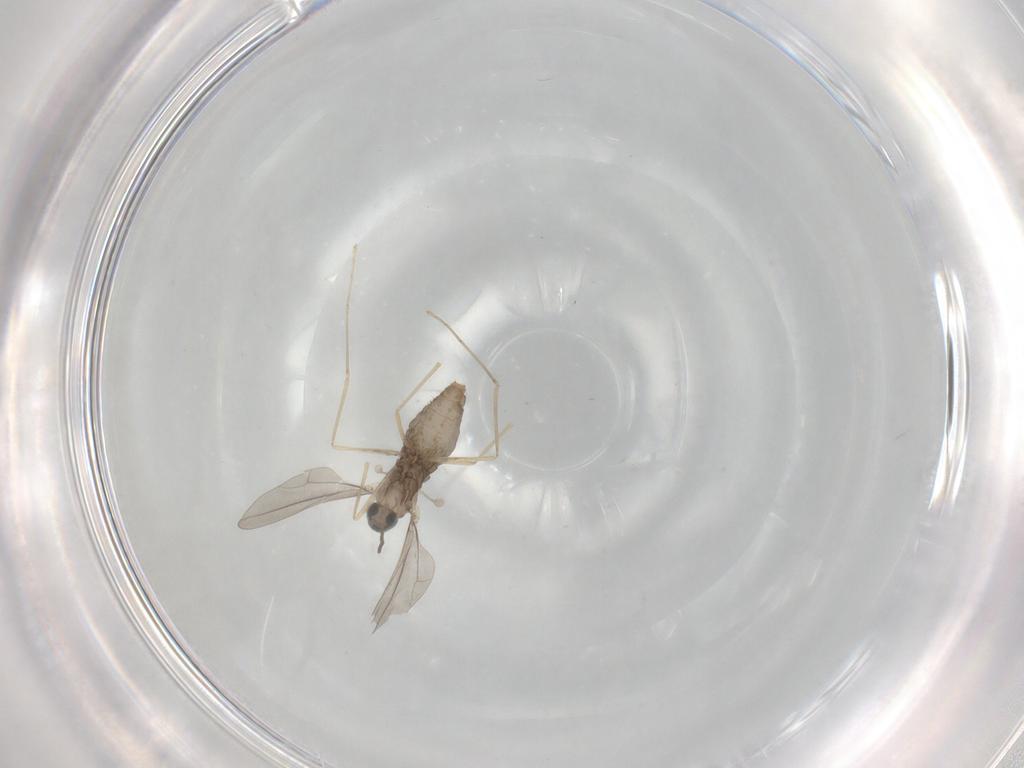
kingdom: Animalia
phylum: Arthropoda
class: Insecta
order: Diptera
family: Cecidomyiidae
